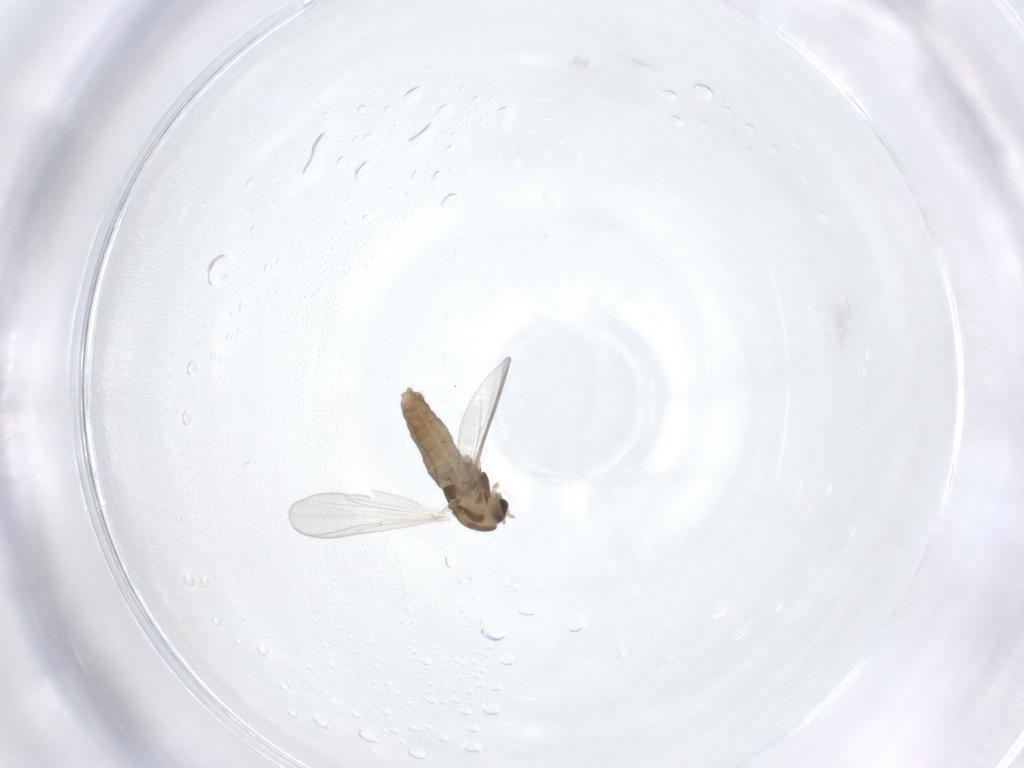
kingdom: Animalia
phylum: Arthropoda
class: Insecta
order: Diptera
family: Chironomidae
